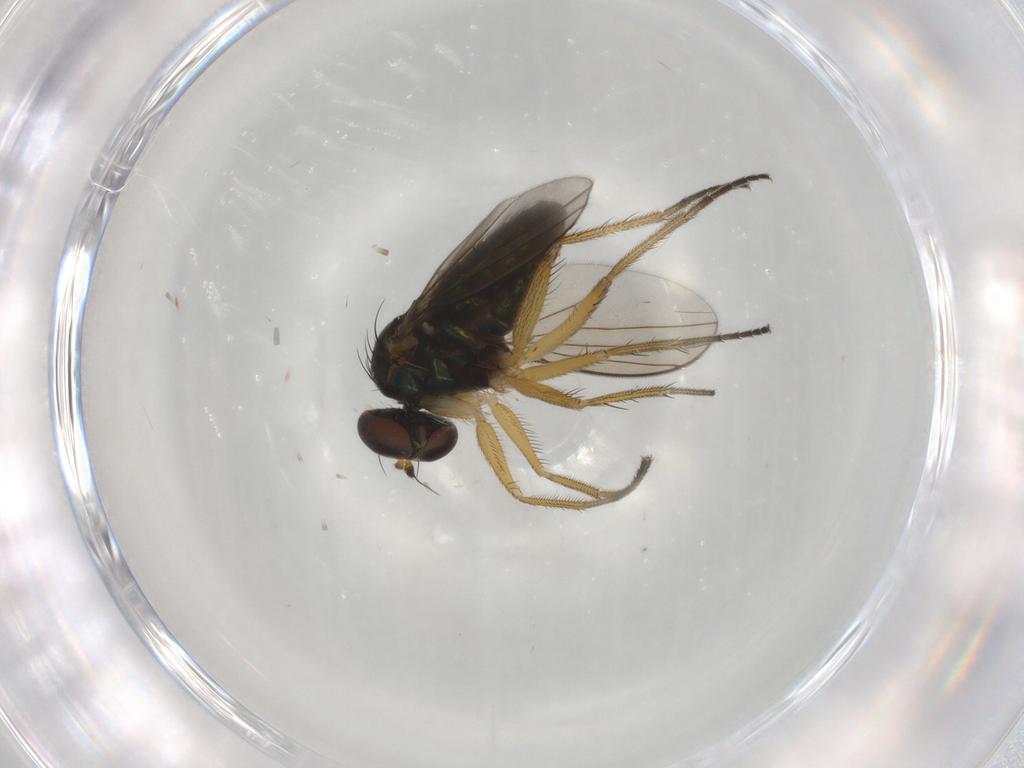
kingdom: Animalia
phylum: Arthropoda
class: Insecta
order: Diptera
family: Dolichopodidae
